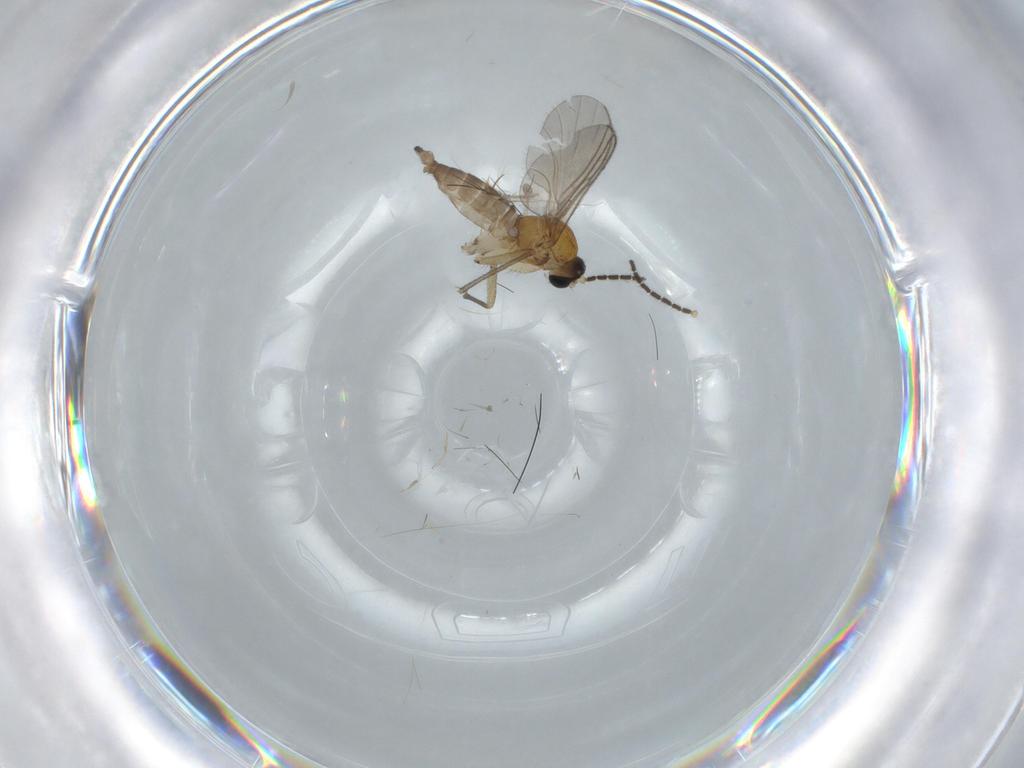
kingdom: Animalia
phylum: Arthropoda
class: Insecta
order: Diptera
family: Sciaridae
